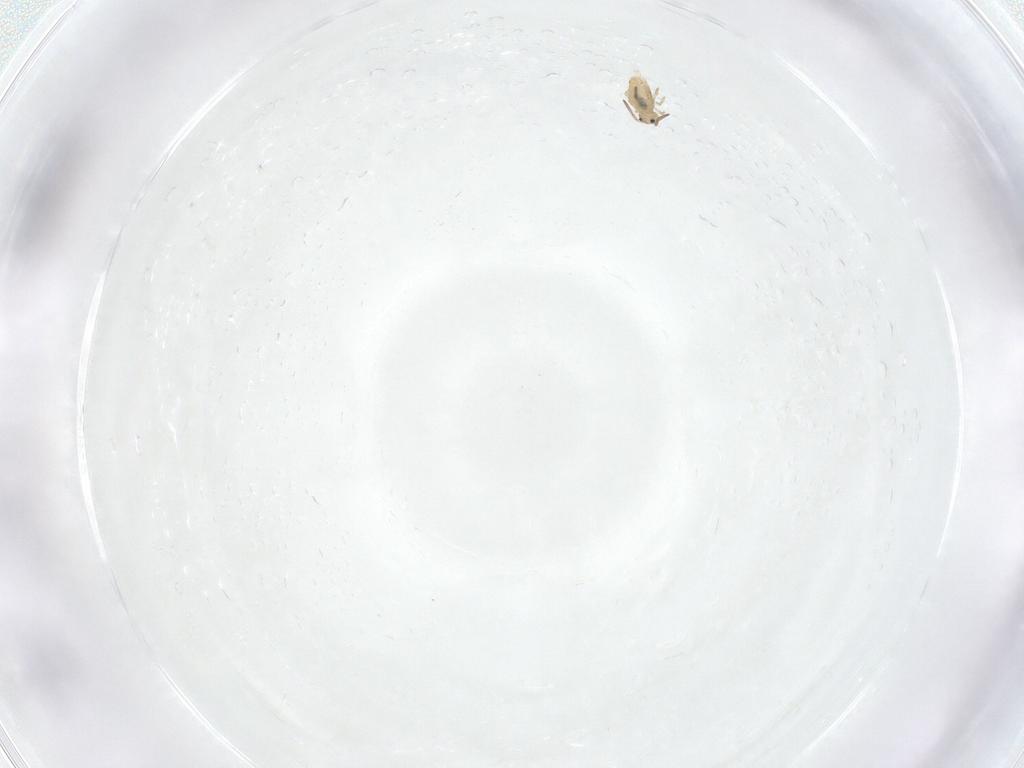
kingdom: Animalia
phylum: Arthropoda
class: Collembola
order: Symphypleona
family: Katiannidae
